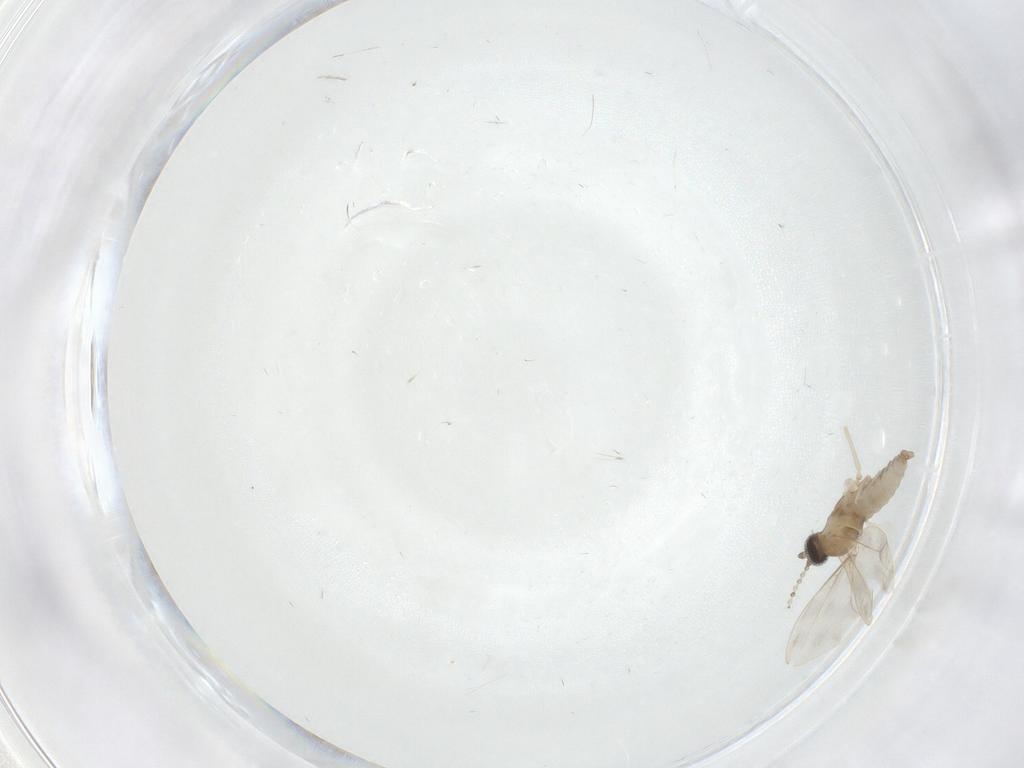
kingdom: Animalia
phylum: Arthropoda
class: Insecta
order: Diptera
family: Cecidomyiidae
